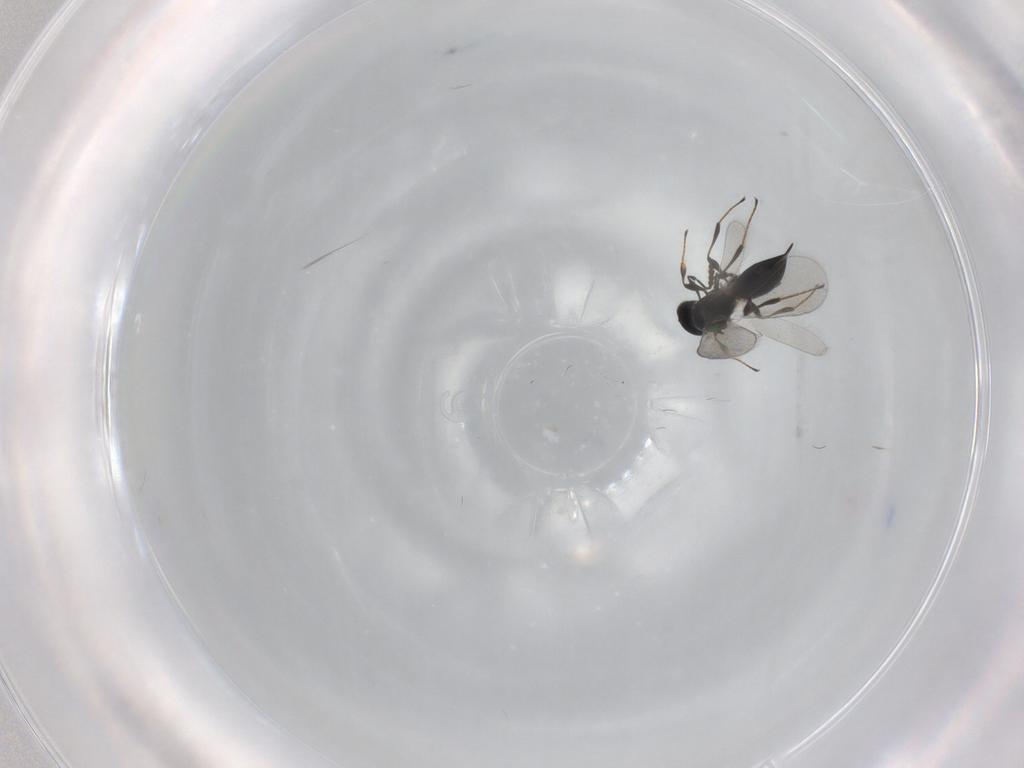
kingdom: Animalia
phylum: Arthropoda
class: Insecta
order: Hymenoptera
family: Platygastridae
